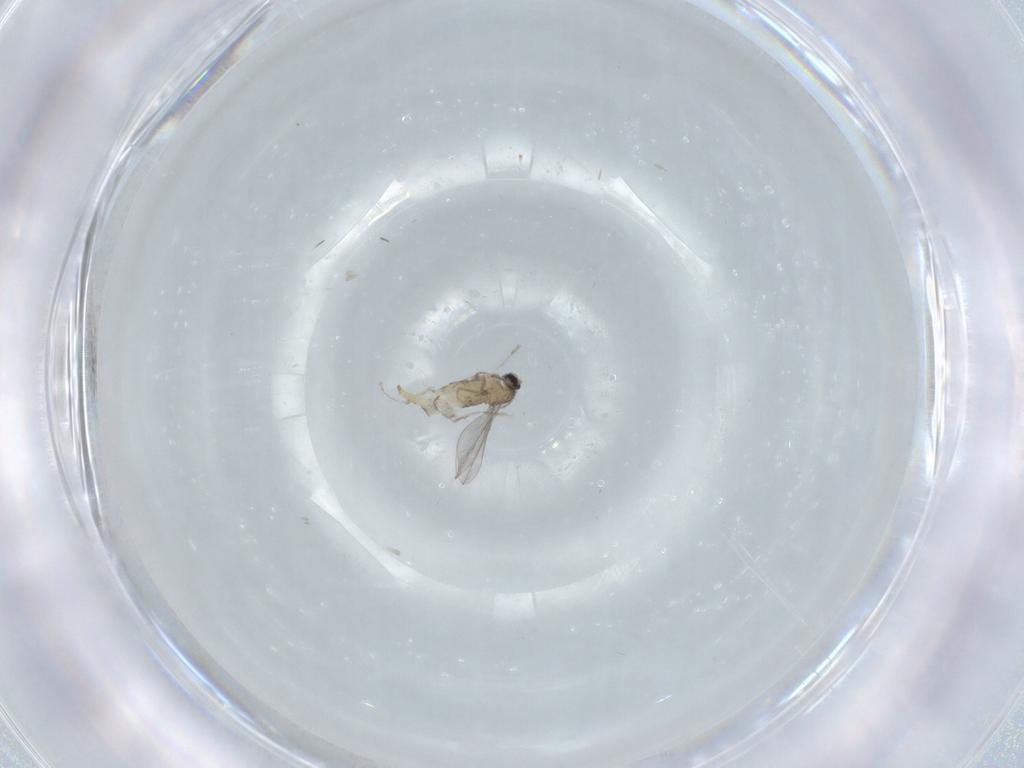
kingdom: Animalia
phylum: Arthropoda
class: Insecta
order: Diptera
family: Cecidomyiidae
